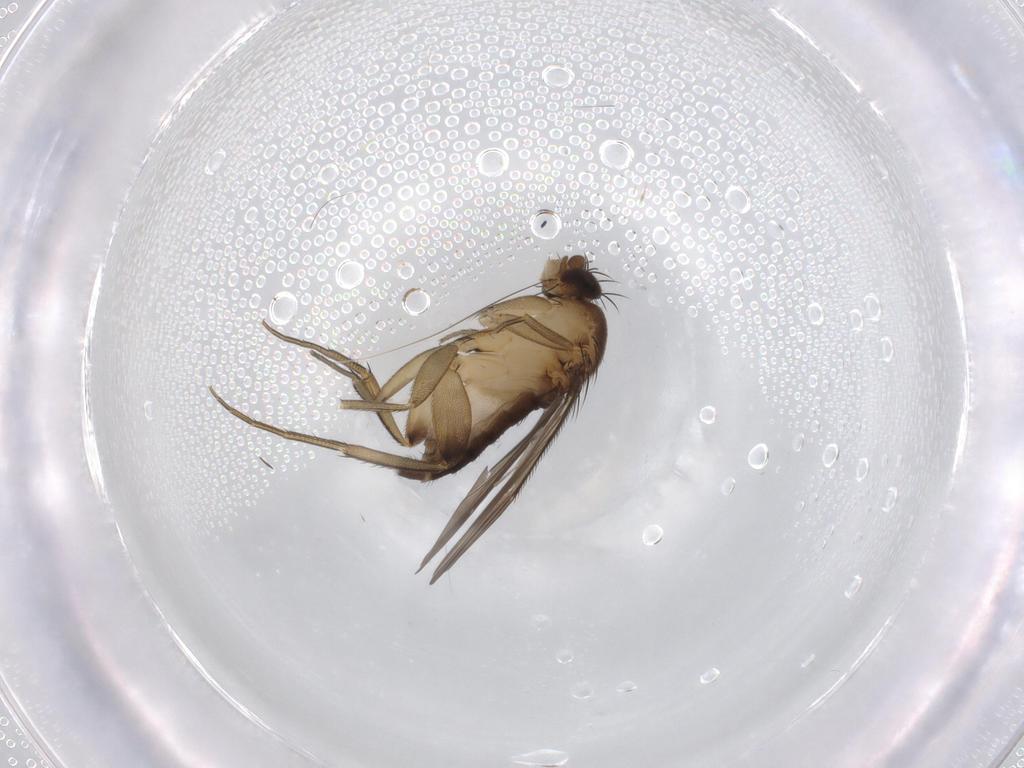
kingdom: Animalia
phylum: Arthropoda
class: Insecta
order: Diptera
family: Phoridae
